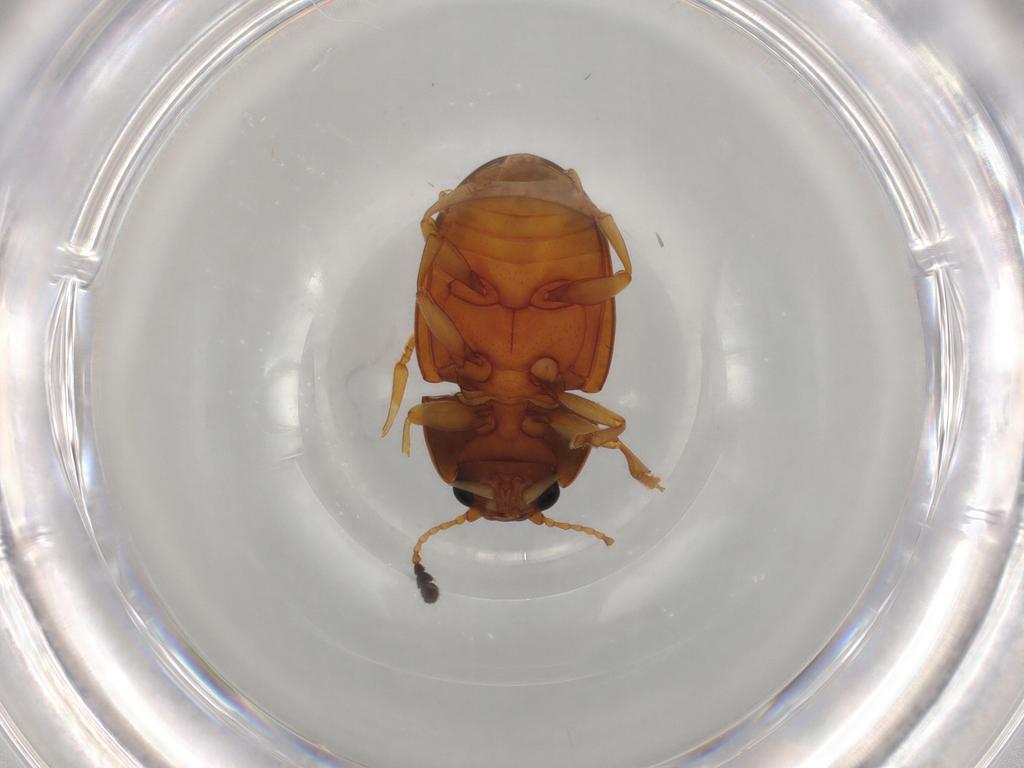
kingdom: Animalia
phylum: Arthropoda
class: Insecta
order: Coleoptera
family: Erotylidae
